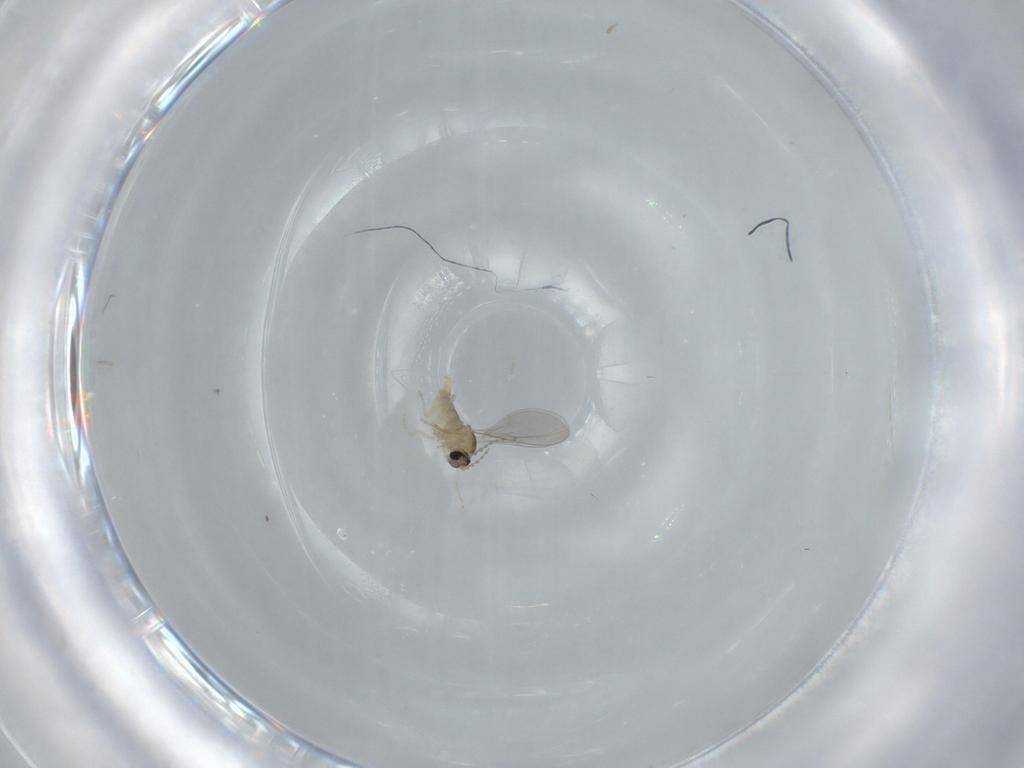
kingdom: Animalia
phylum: Arthropoda
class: Insecta
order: Diptera
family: Cecidomyiidae
